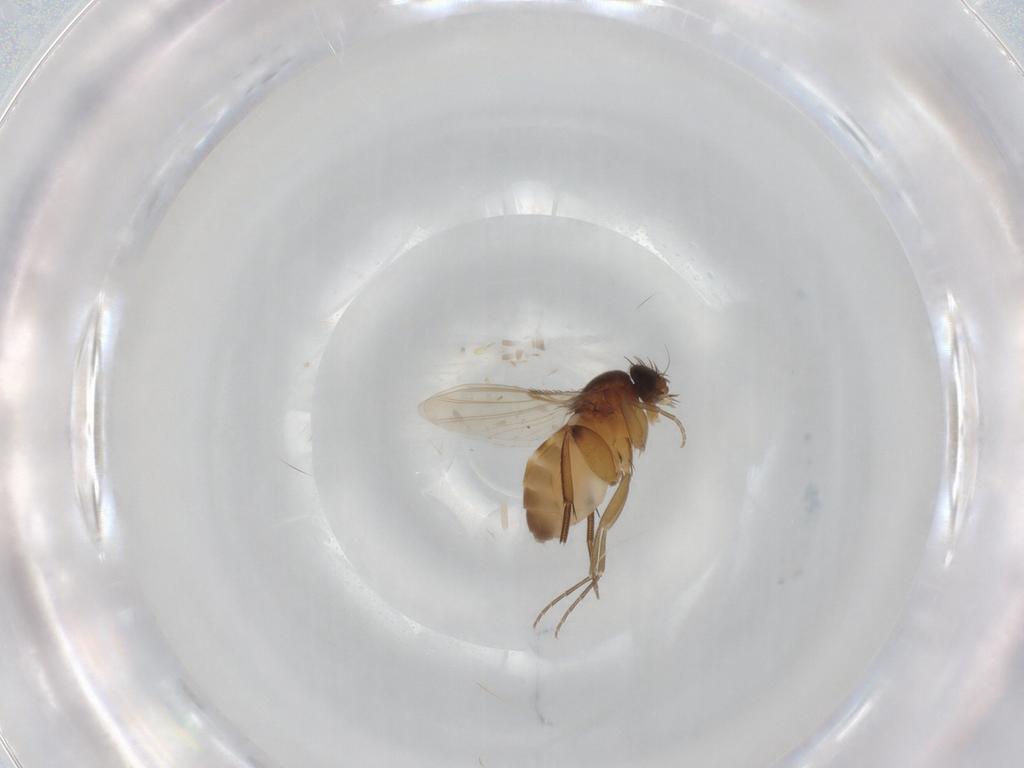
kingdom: Animalia
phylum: Arthropoda
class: Insecta
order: Diptera
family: Phoridae
